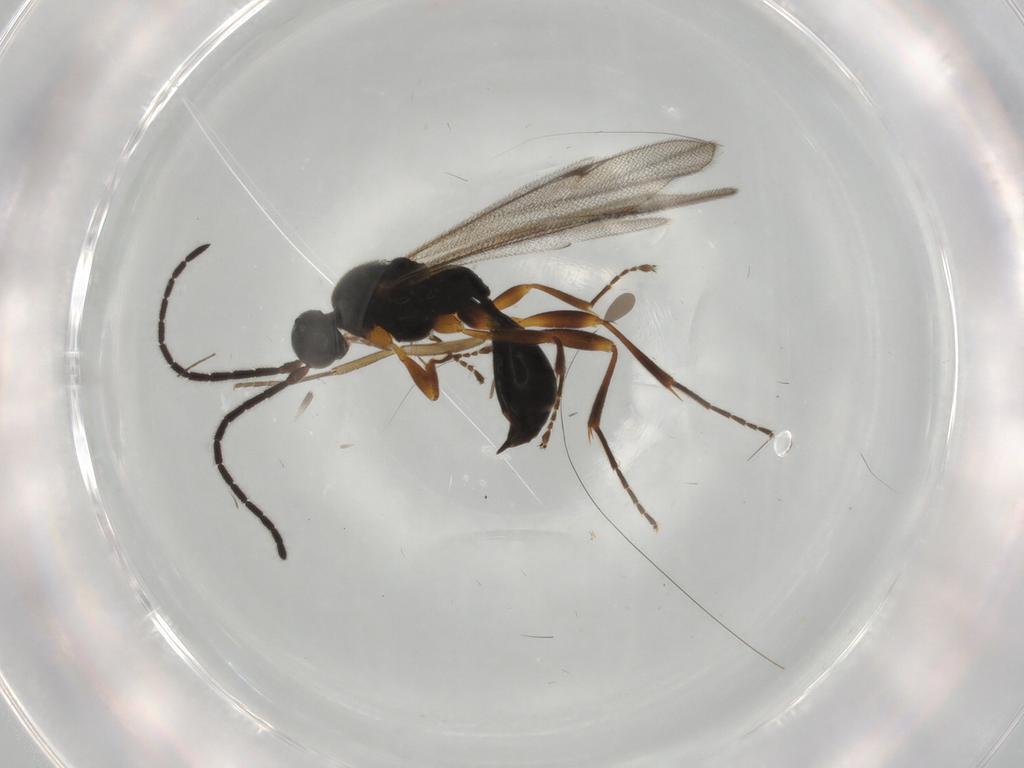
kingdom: Animalia
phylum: Arthropoda
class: Insecta
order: Hymenoptera
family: Proctotrupidae
